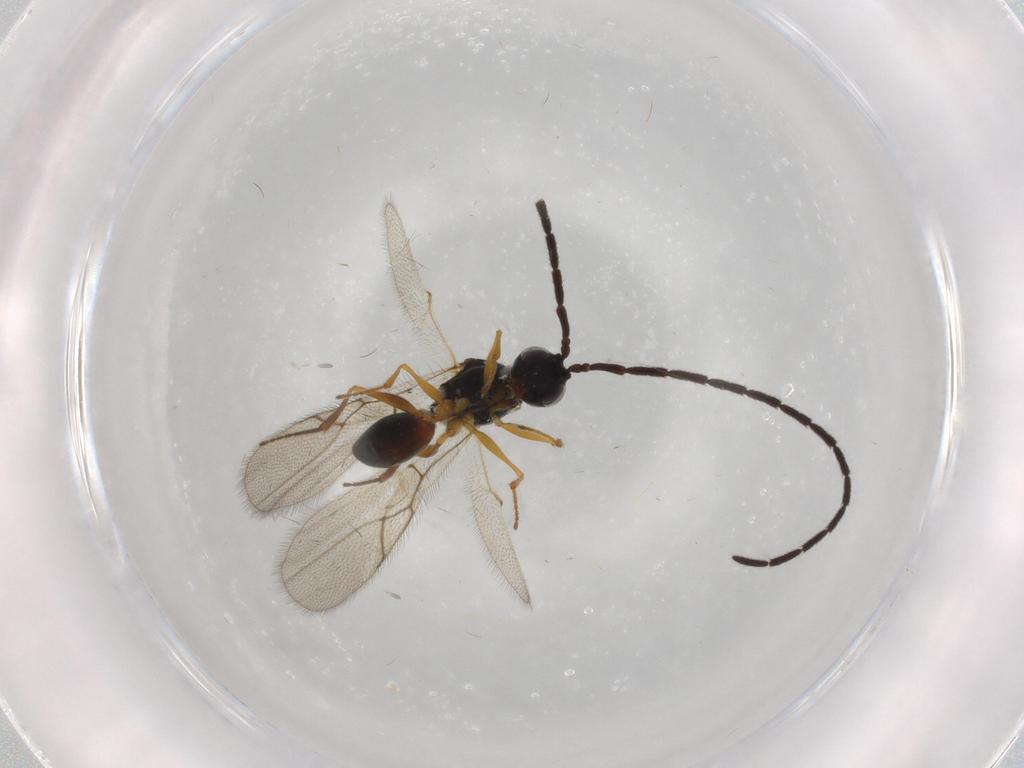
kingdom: Animalia
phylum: Arthropoda
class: Insecta
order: Hymenoptera
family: Figitidae
